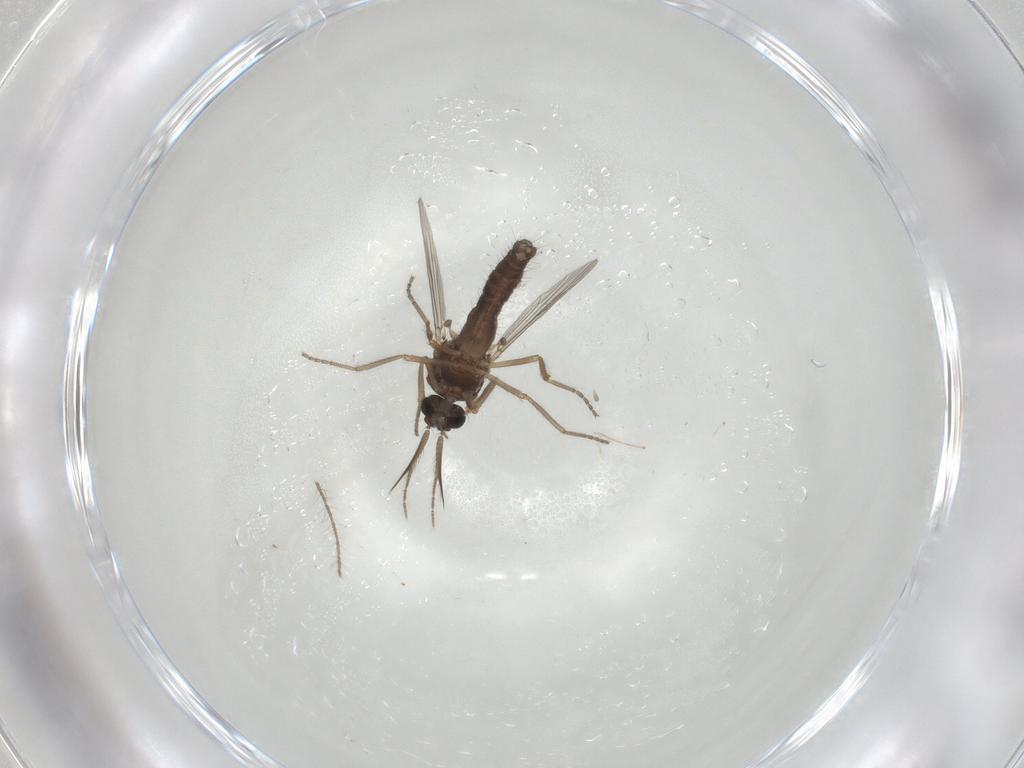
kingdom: Animalia
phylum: Arthropoda
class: Insecta
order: Diptera
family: Ceratopogonidae
